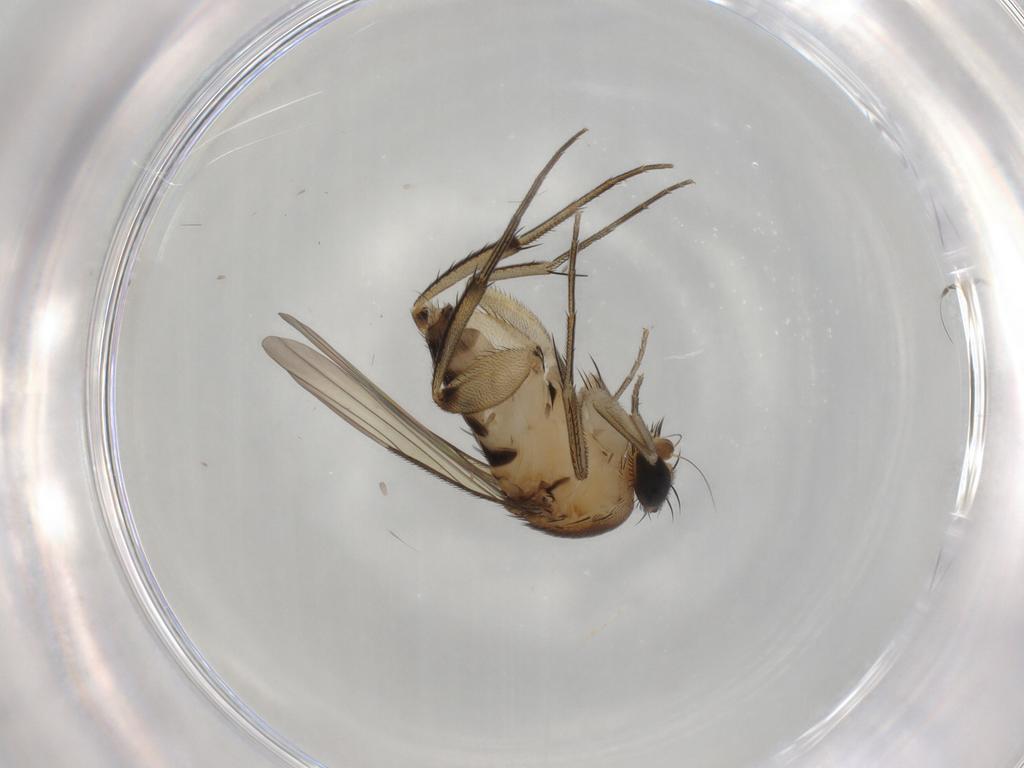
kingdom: Animalia
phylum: Arthropoda
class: Insecta
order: Diptera
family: Phoridae
